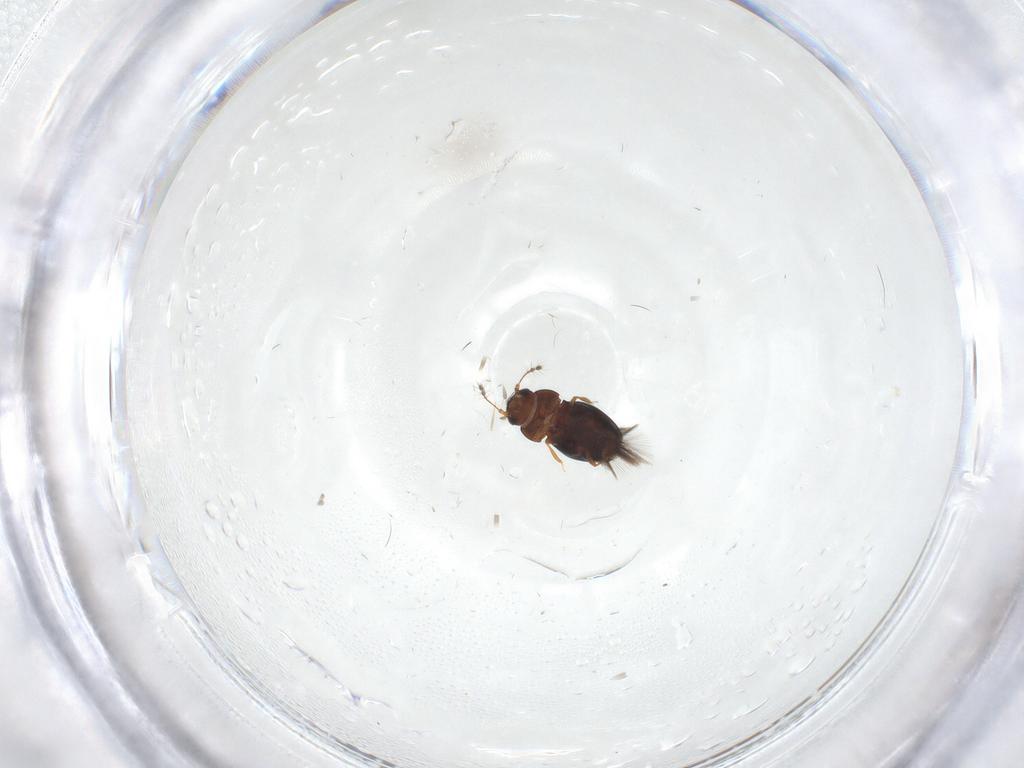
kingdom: Animalia
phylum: Arthropoda
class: Insecta
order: Coleoptera
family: Ptiliidae
